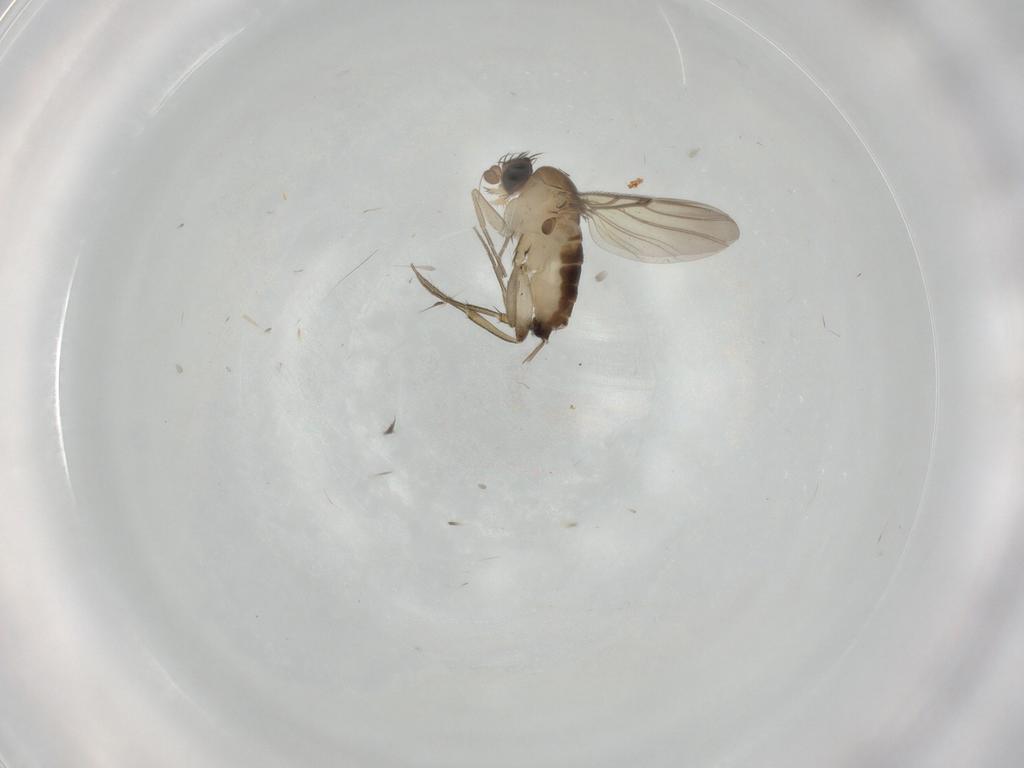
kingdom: Animalia
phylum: Arthropoda
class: Insecta
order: Diptera
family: Phoridae
